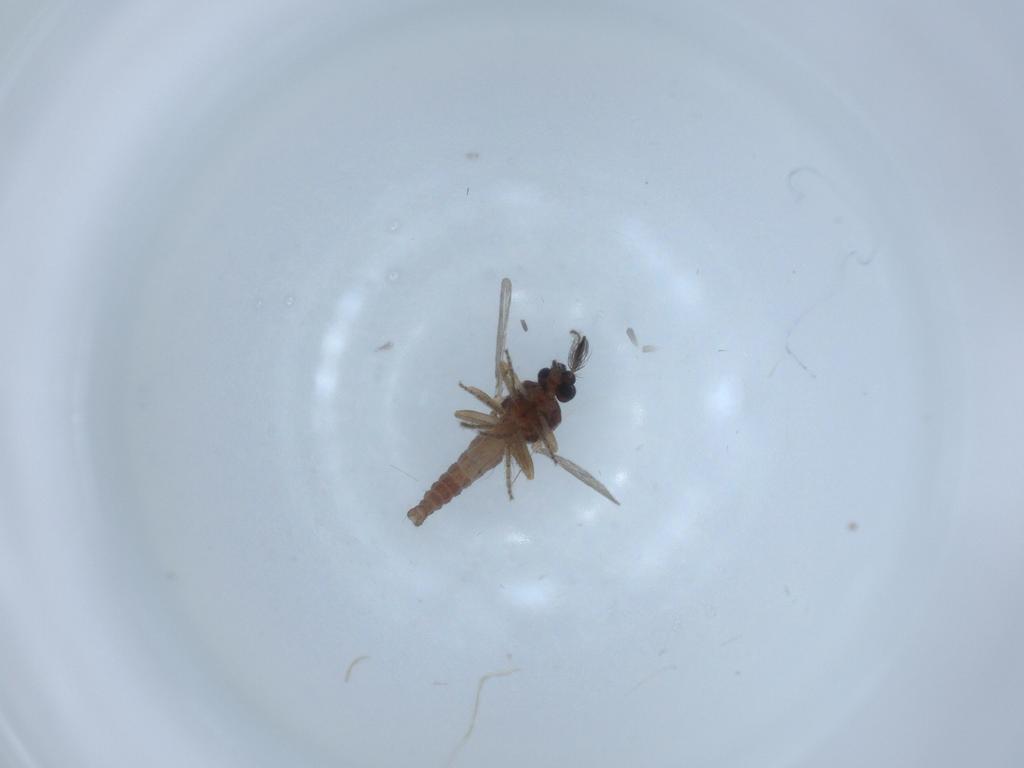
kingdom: Animalia
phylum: Arthropoda
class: Insecta
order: Diptera
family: Ceratopogonidae
